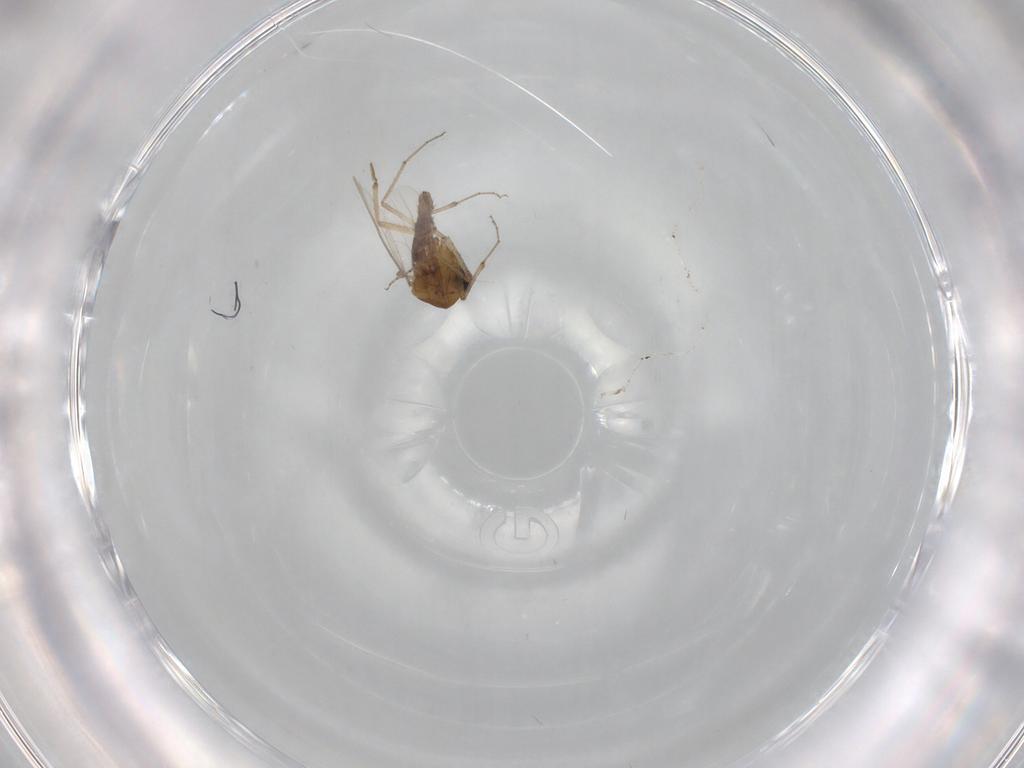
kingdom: Animalia
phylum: Arthropoda
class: Insecta
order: Diptera
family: Ceratopogonidae
